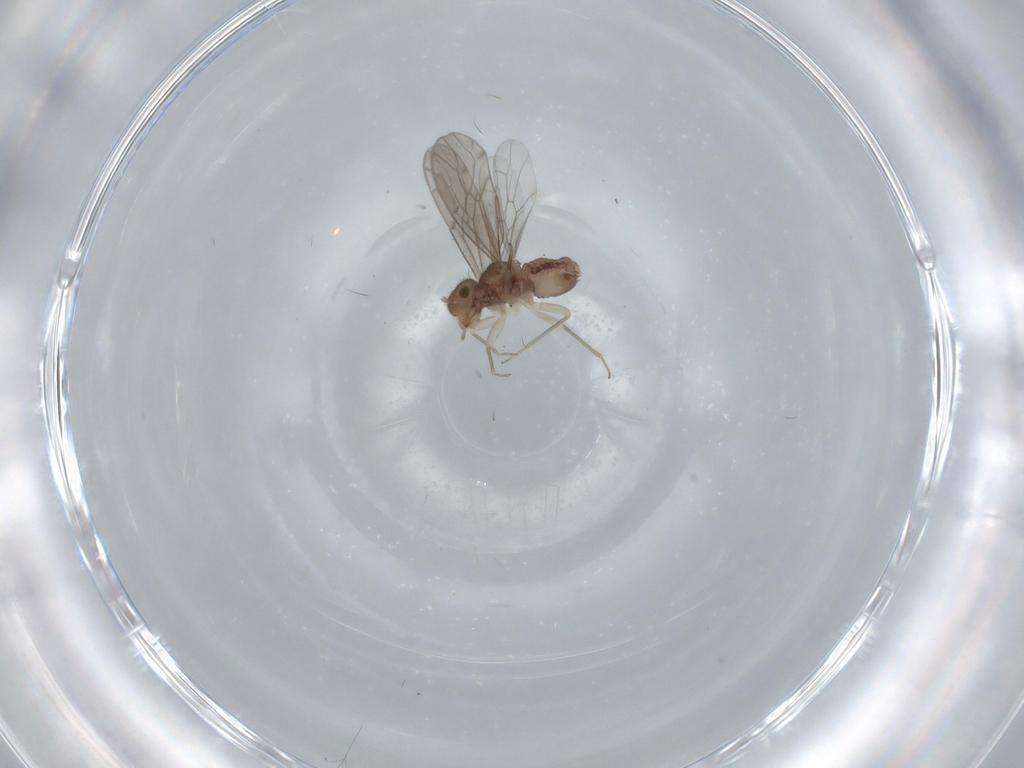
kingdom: Animalia
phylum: Arthropoda
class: Insecta
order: Psocodea
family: Ectopsocidae
